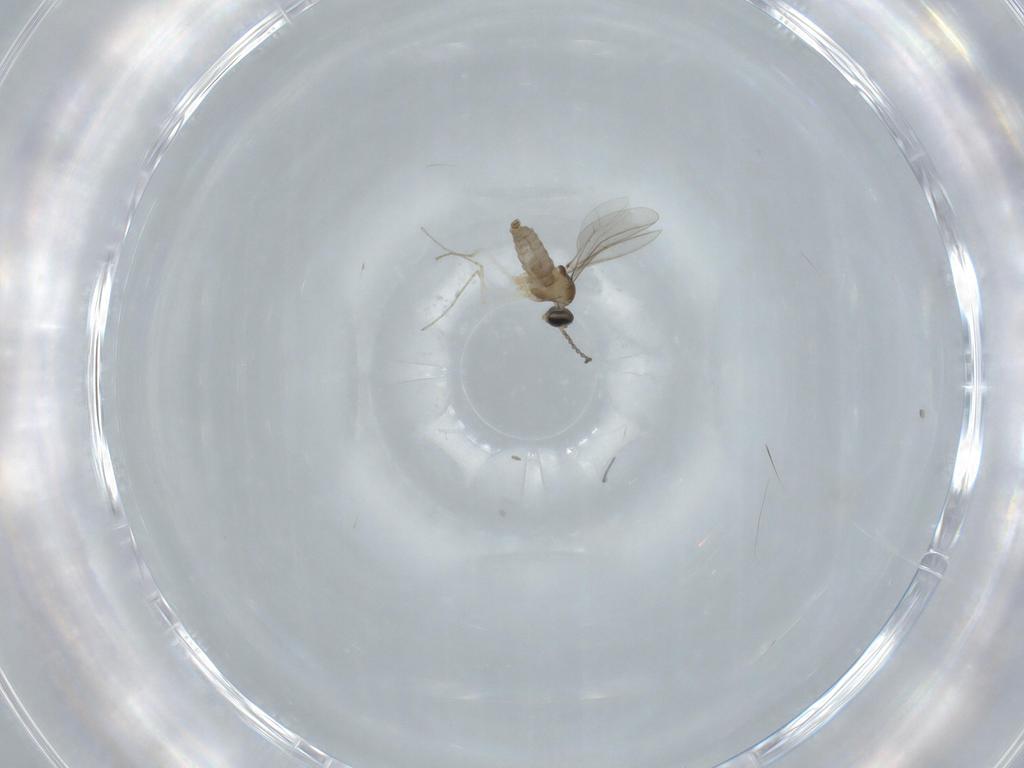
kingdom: Animalia
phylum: Arthropoda
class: Insecta
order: Diptera
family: Cecidomyiidae
